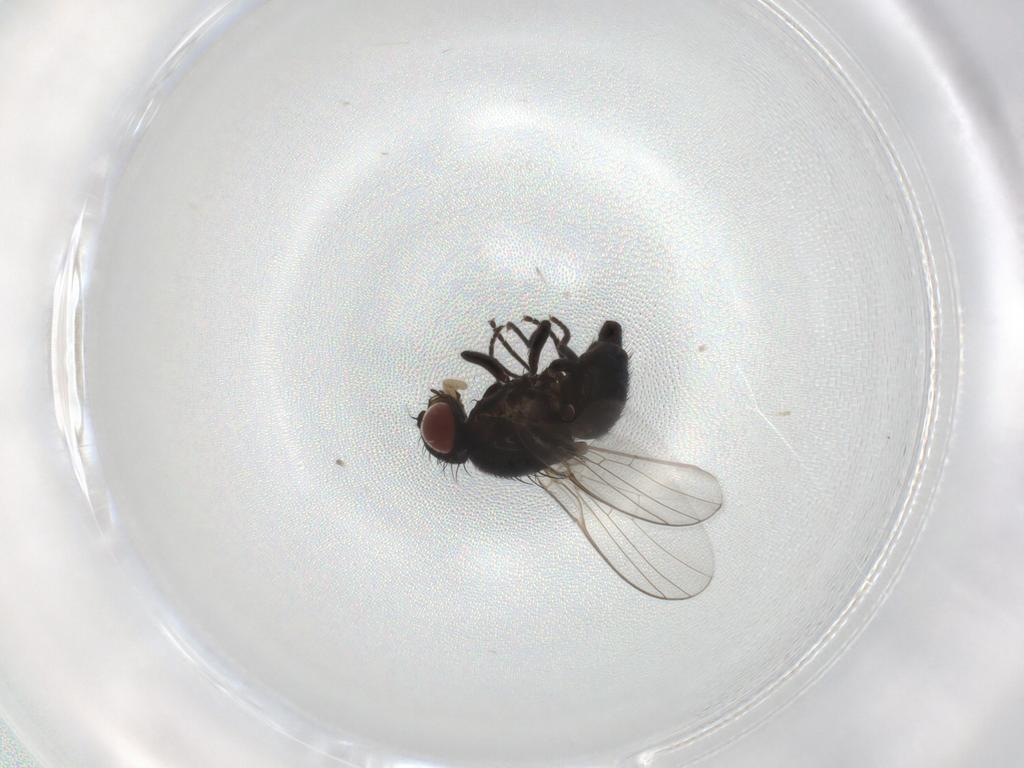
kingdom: Animalia
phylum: Arthropoda
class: Insecta
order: Diptera
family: Agromyzidae
